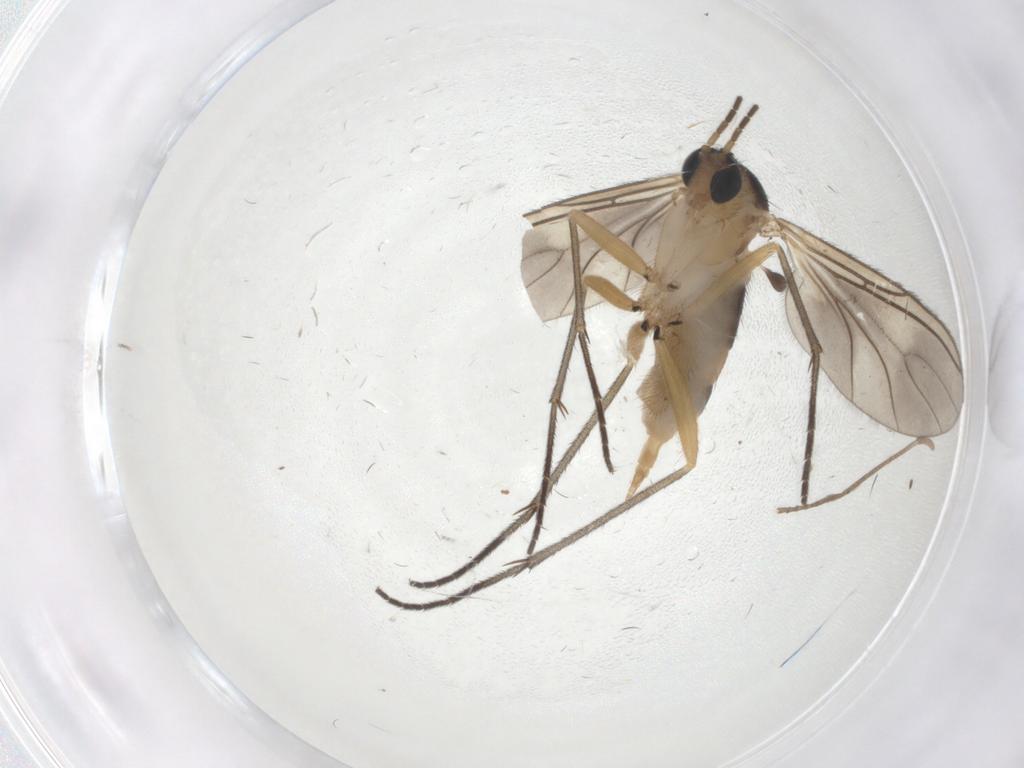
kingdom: Animalia
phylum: Arthropoda
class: Insecta
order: Diptera
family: Sciaridae
